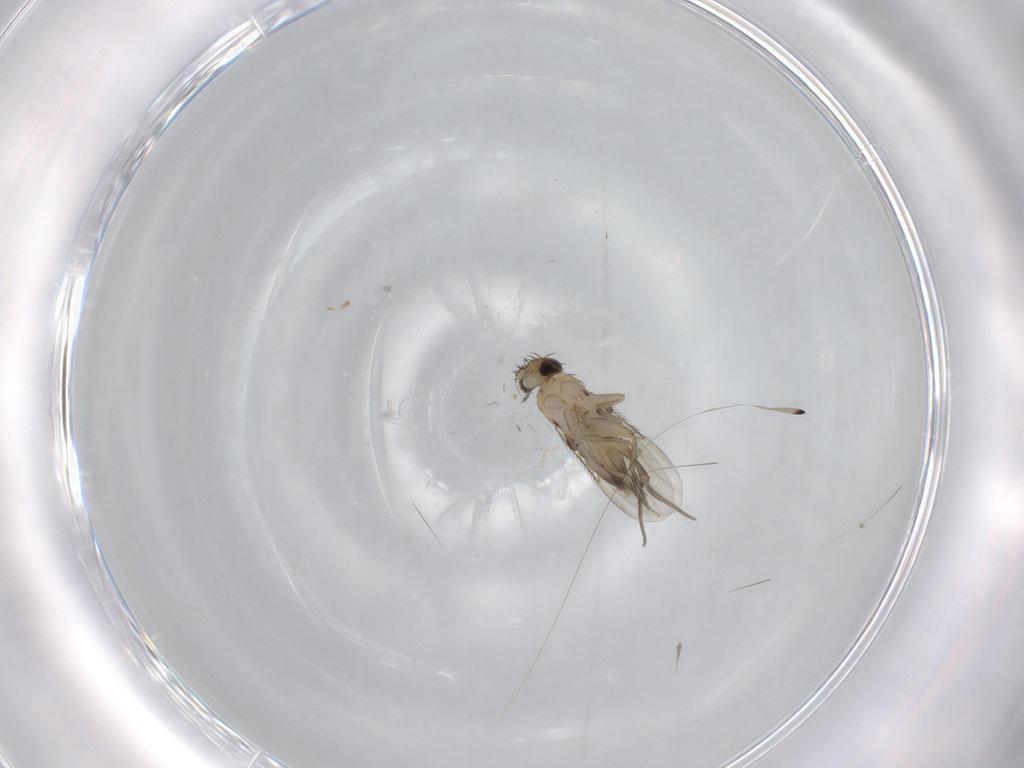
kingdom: Animalia
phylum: Arthropoda
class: Insecta
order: Diptera
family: Phoridae
